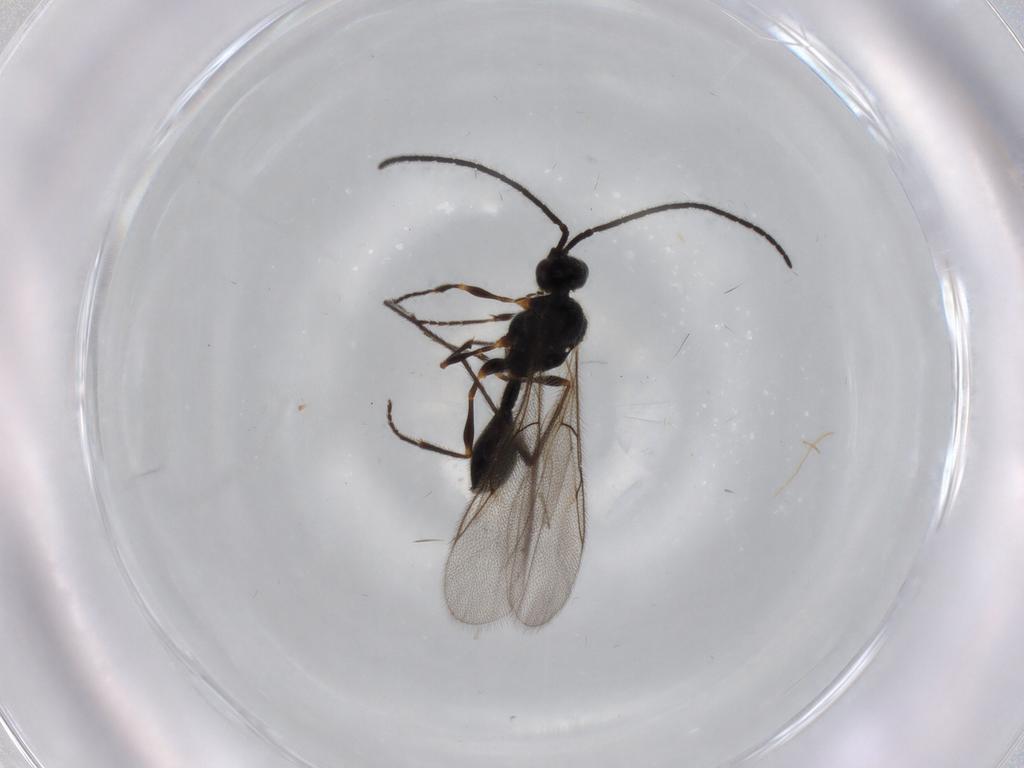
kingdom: Animalia
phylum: Arthropoda
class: Insecta
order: Hymenoptera
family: Diapriidae
